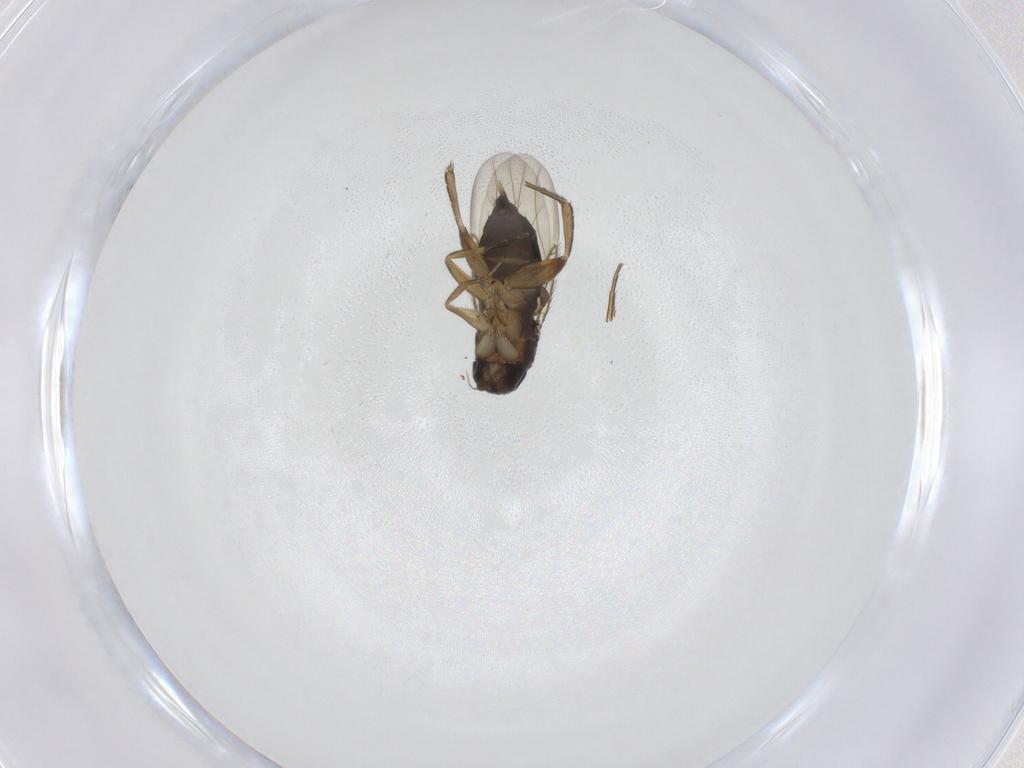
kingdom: Animalia
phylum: Arthropoda
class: Insecta
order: Diptera
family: Phoridae
